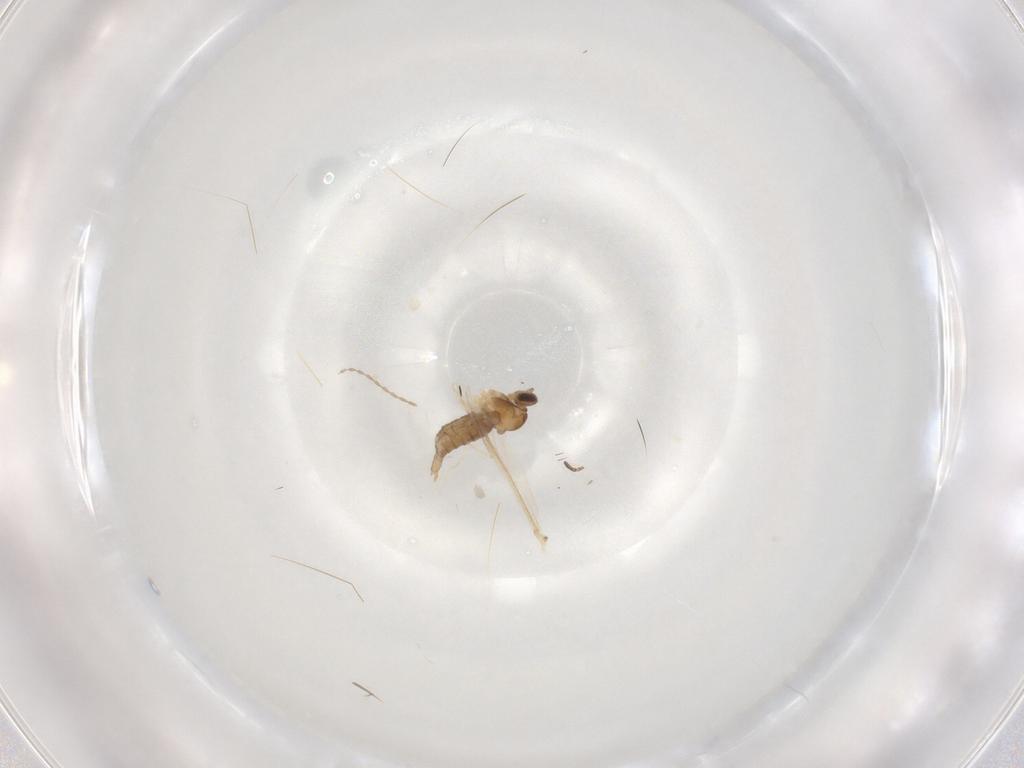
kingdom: Animalia
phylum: Arthropoda
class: Insecta
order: Diptera
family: Cecidomyiidae
